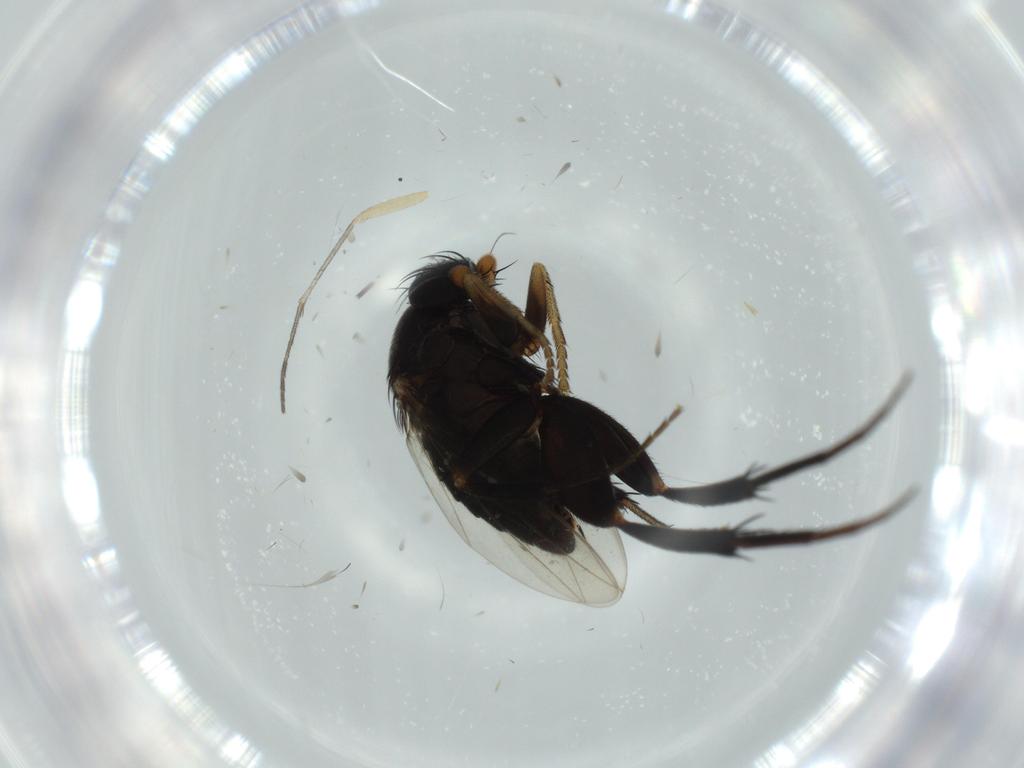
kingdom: Animalia
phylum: Arthropoda
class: Insecta
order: Diptera
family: Phoridae
